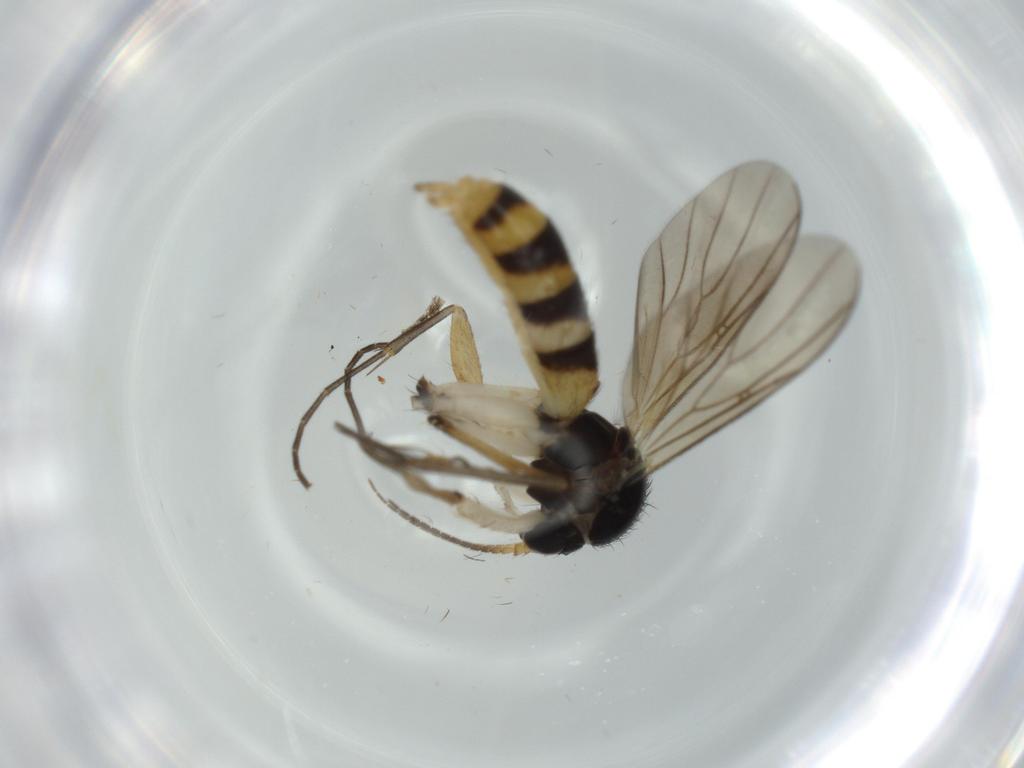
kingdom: Animalia
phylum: Arthropoda
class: Insecta
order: Diptera
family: Mycetophilidae
